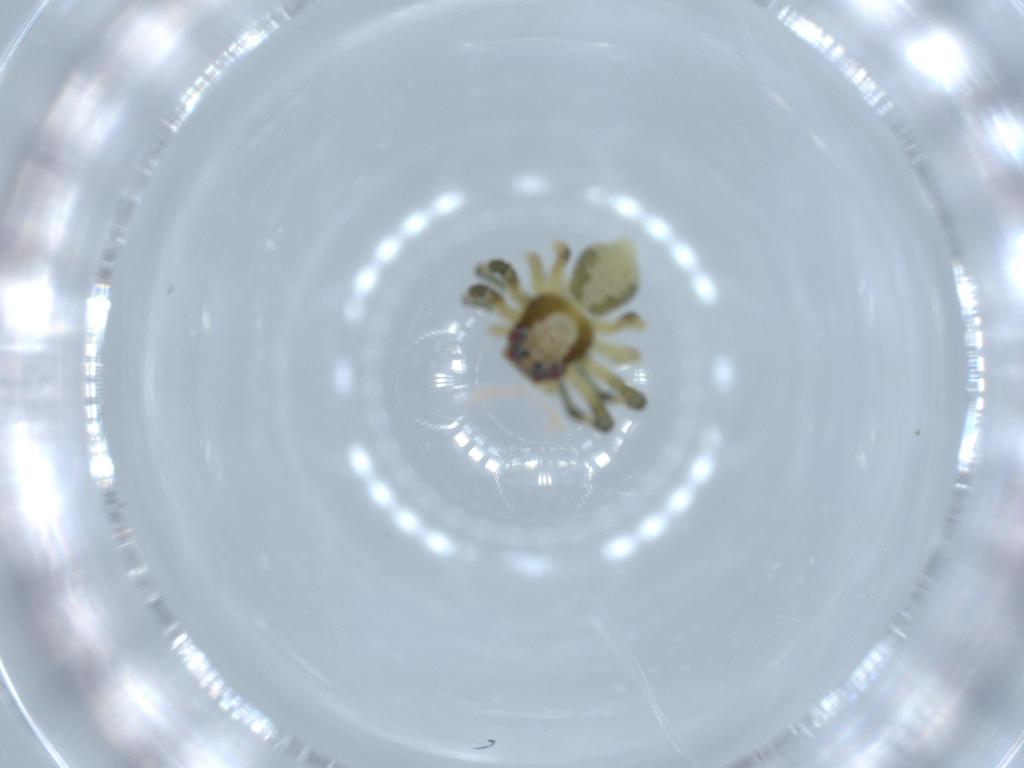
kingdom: Animalia
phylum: Arthropoda
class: Arachnida
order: Araneae
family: Thomisidae
